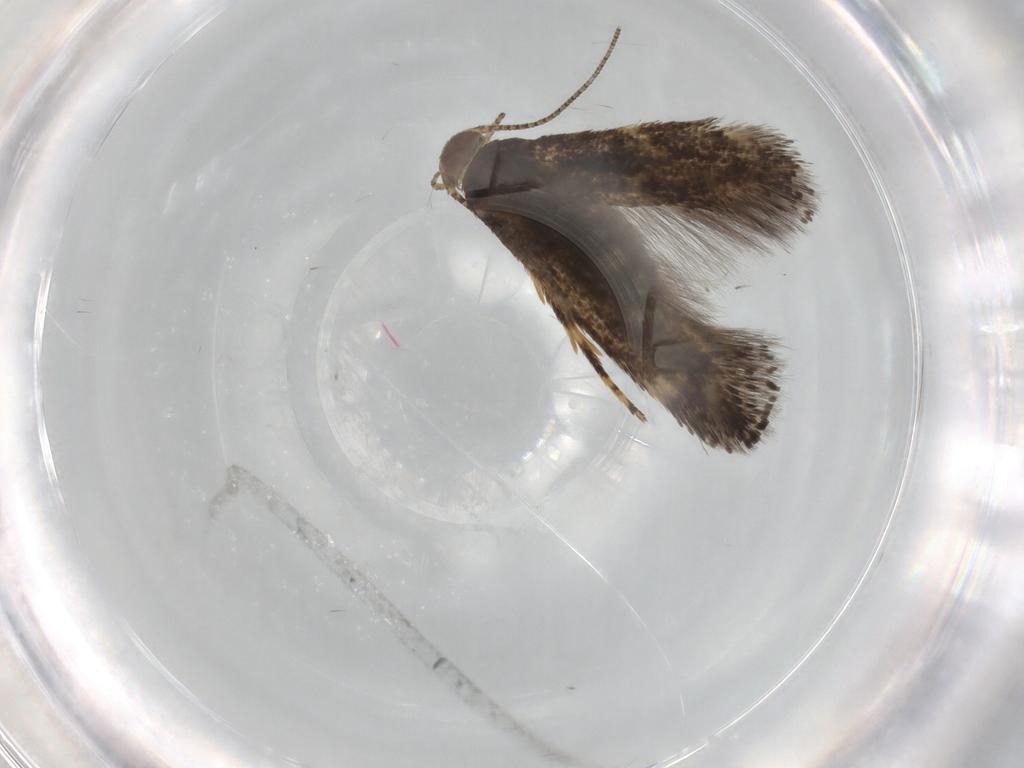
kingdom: Animalia
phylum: Arthropoda
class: Insecta
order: Lepidoptera
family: Elachistidae
